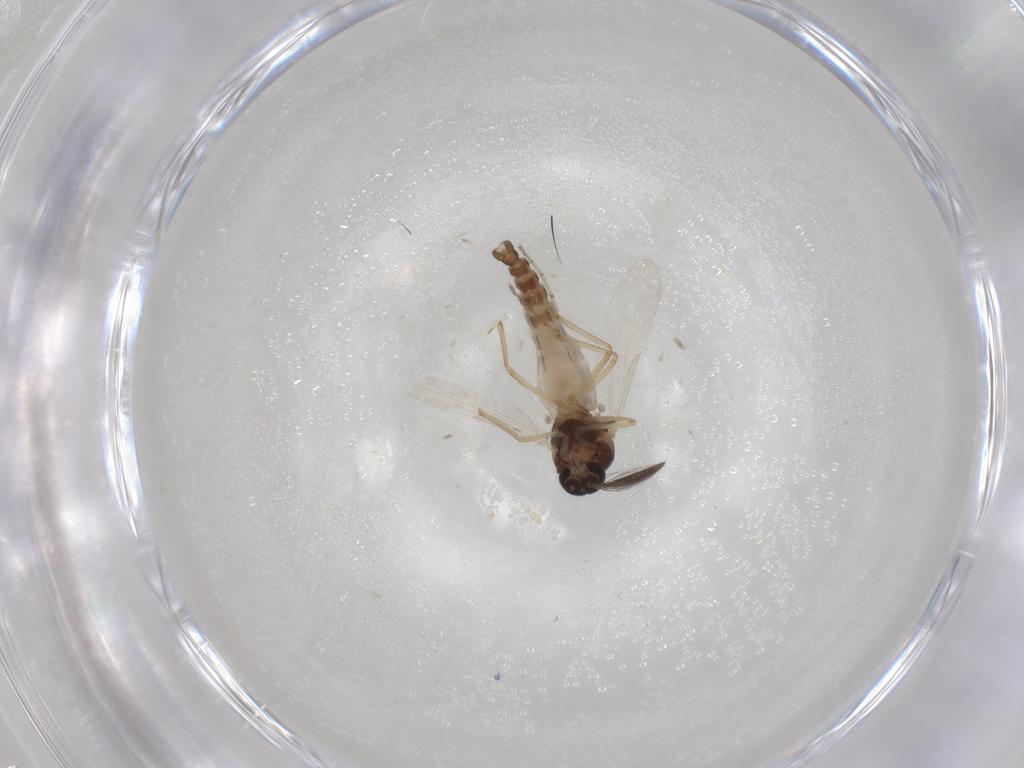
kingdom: Animalia
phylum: Arthropoda
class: Insecta
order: Diptera
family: Ceratopogonidae
